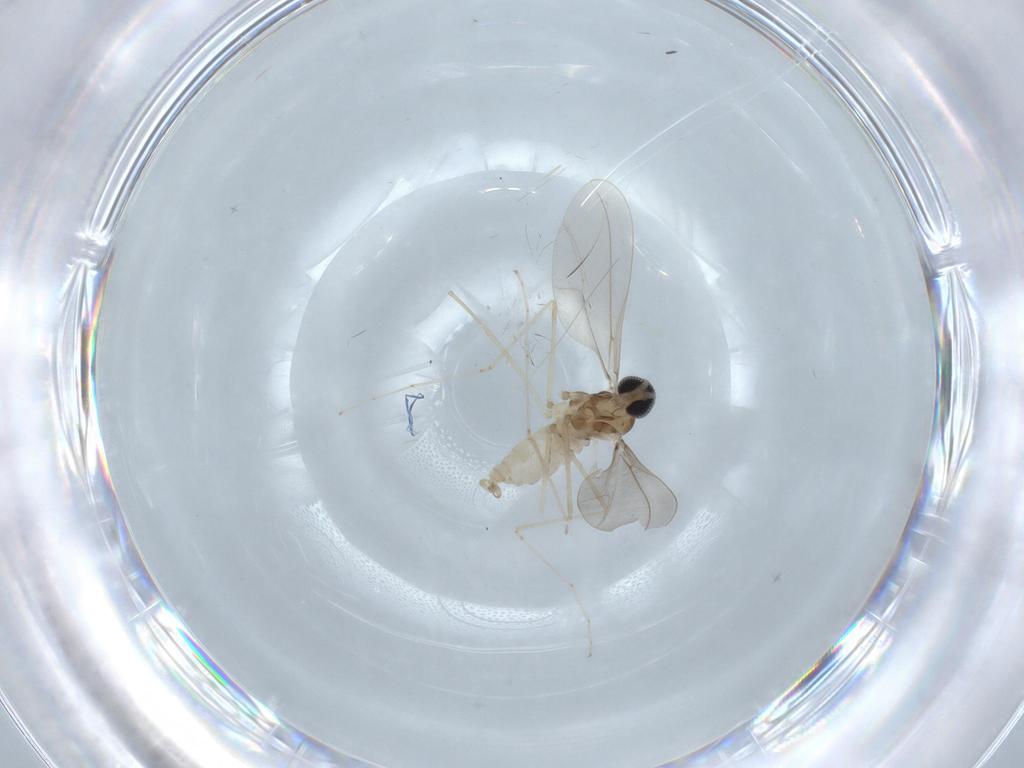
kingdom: Animalia
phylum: Arthropoda
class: Insecta
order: Diptera
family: Cecidomyiidae
